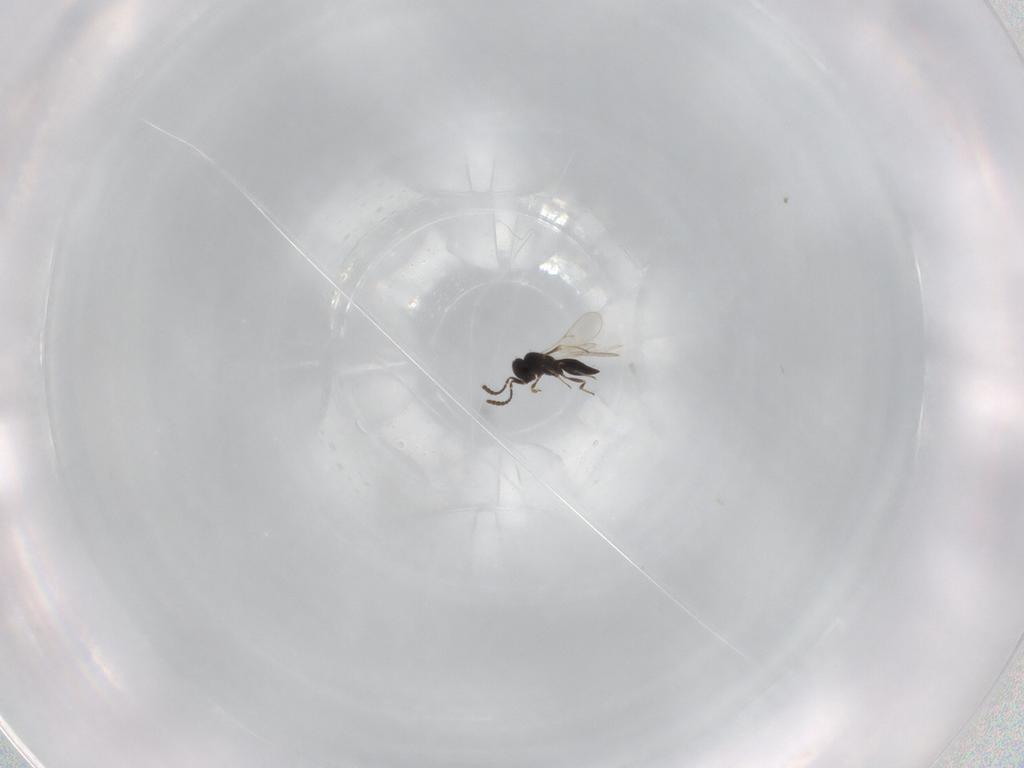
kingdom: Animalia
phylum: Arthropoda
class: Insecta
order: Hymenoptera
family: Scelionidae
